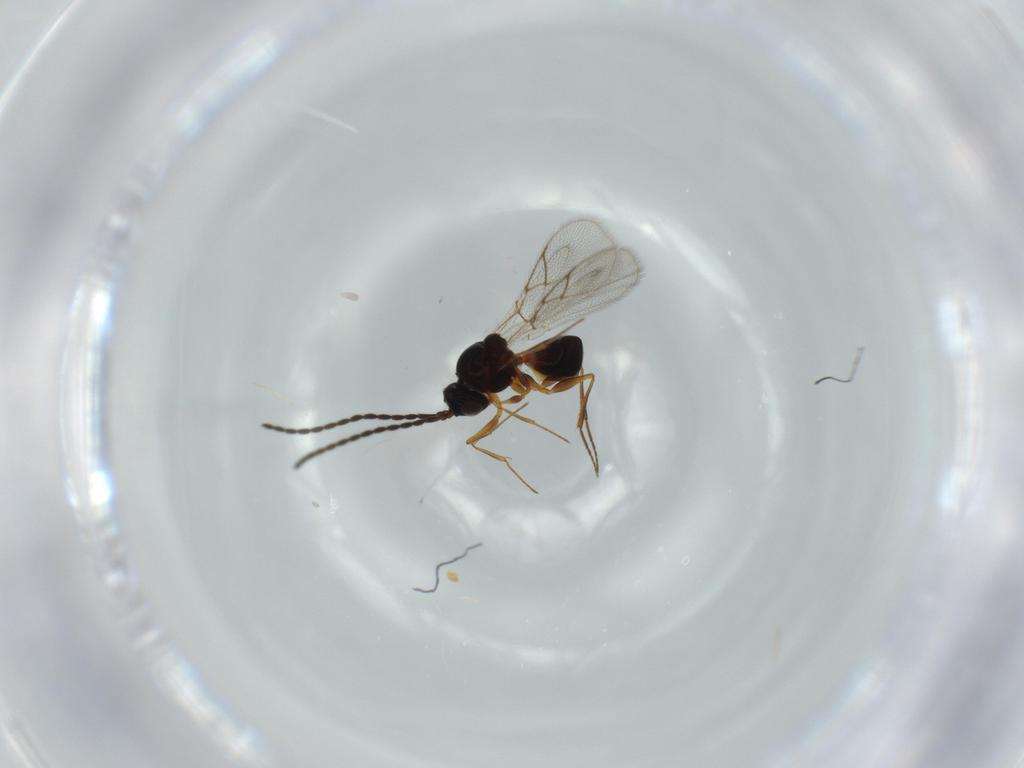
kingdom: Animalia
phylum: Arthropoda
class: Insecta
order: Hymenoptera
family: Figitidae
